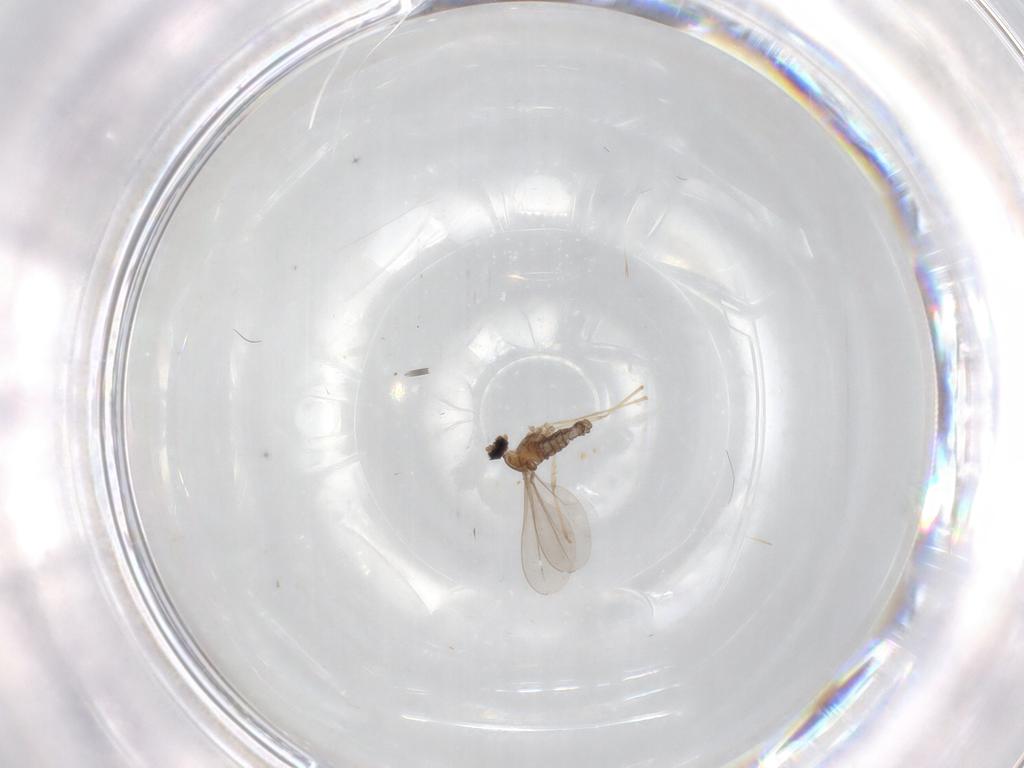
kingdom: Animalia
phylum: Arthropoda
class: Insecta
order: Diptera
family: Cecidomyiidae
